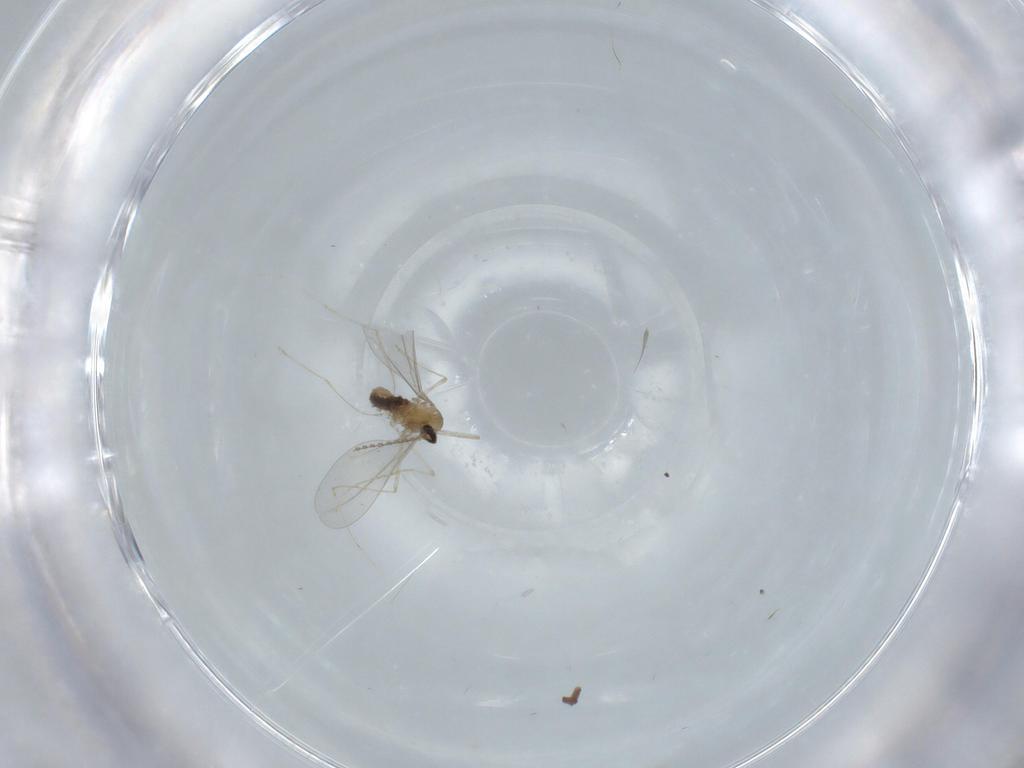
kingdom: Animalia
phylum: Arthropoda
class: Insecta
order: Diptera
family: Cecidomyiidae
